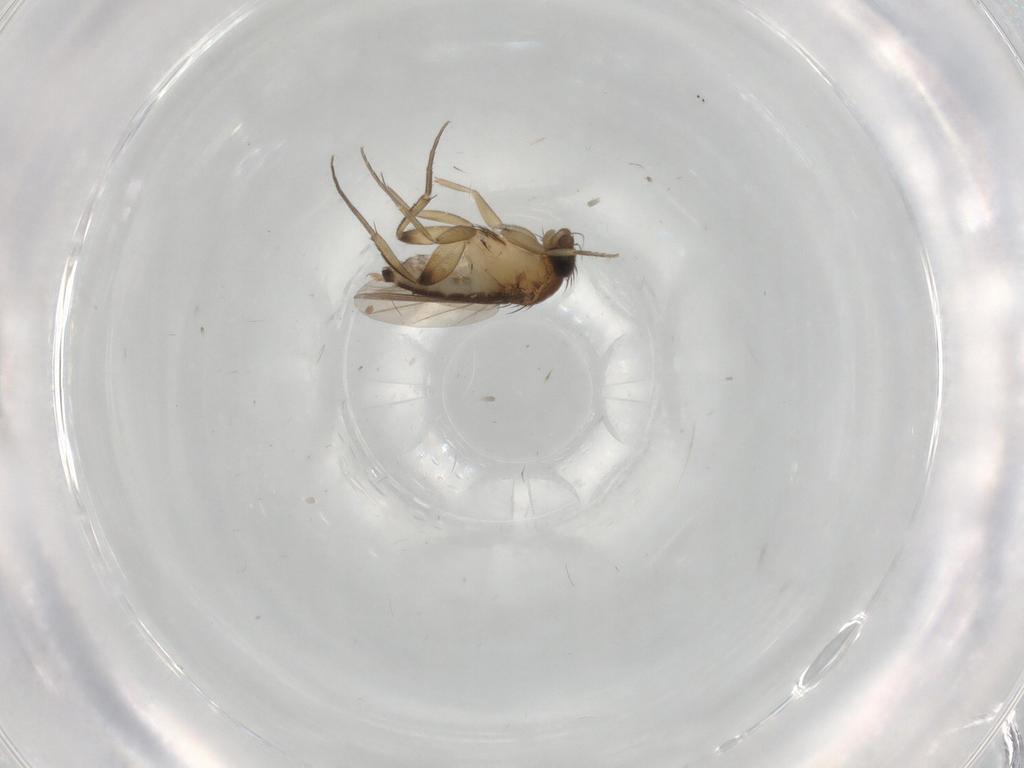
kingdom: Animalia
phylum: Arthropoda
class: Insecta
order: Diptera
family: Phoridae
